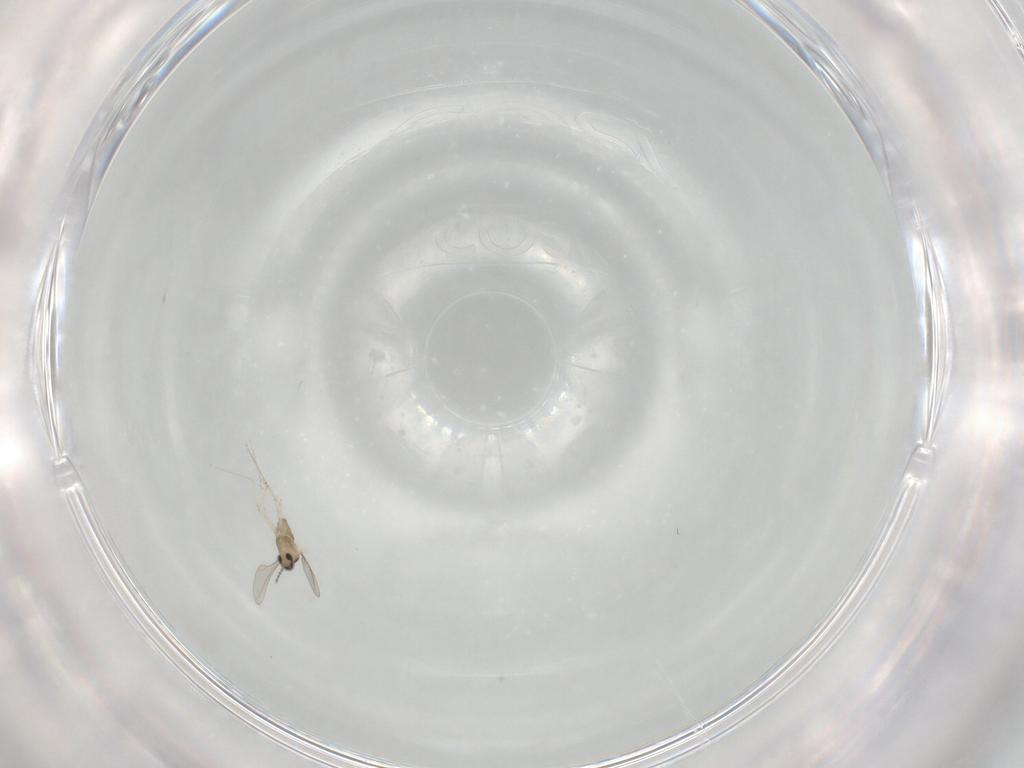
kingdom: Animalia
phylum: Arthropoda
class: Insecta
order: Diptera
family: Cecidomyiidae
